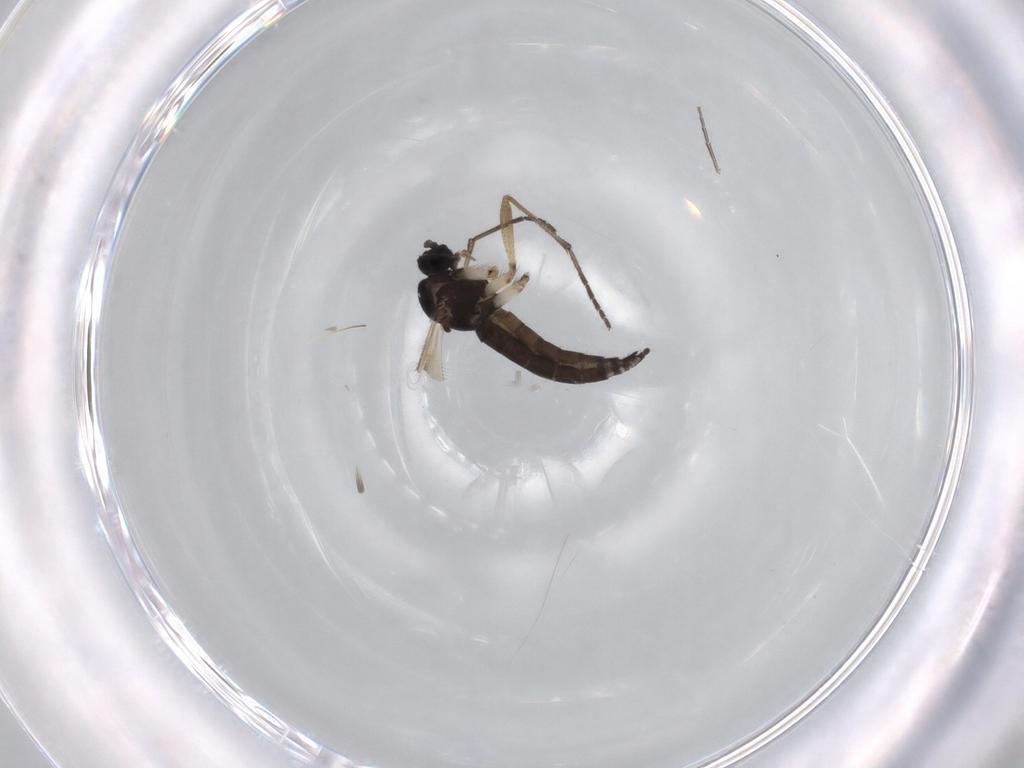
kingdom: Animalia
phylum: Arthropoda
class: Insecta
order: Diptera
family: Sciaridae
